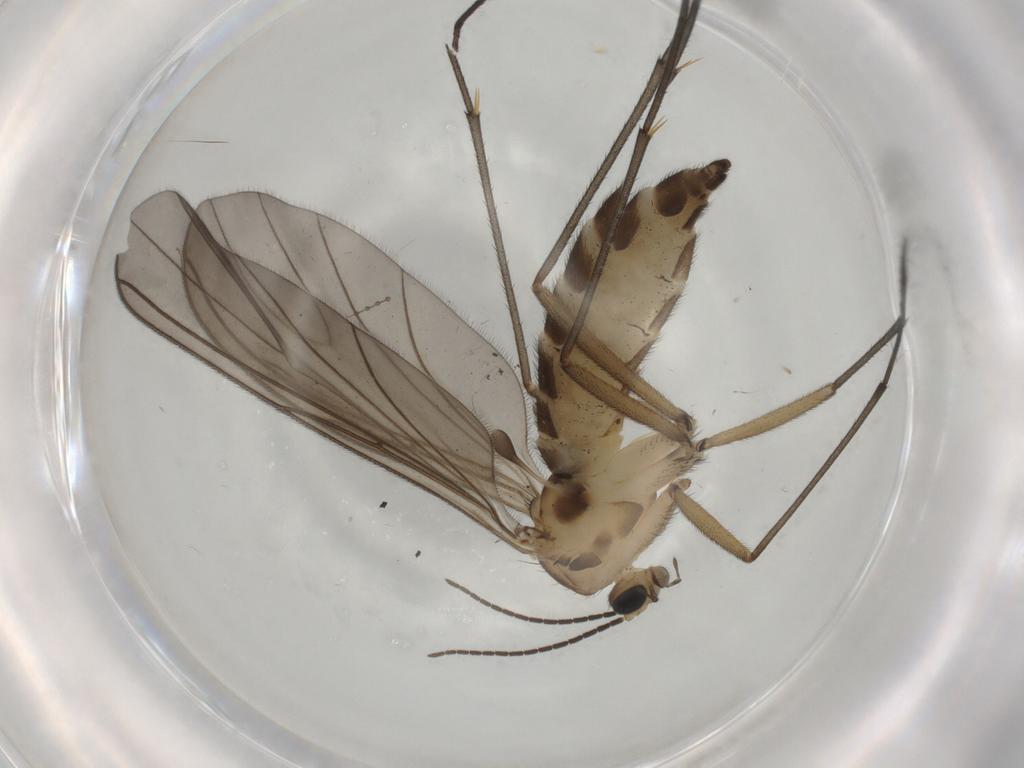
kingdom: Animalia
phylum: Arthropoda
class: Insecta
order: Diptera
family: Sciaridae
